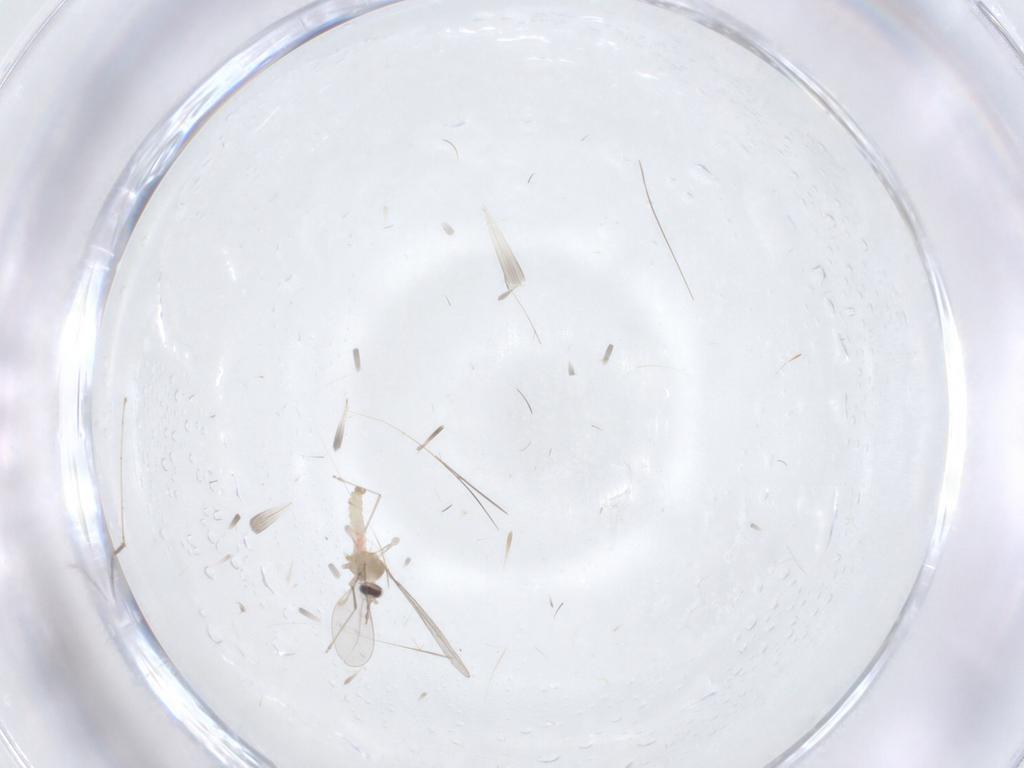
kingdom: Animalia
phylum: Arthropoda
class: Insecta
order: Diptera
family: Cecidomyiidae
